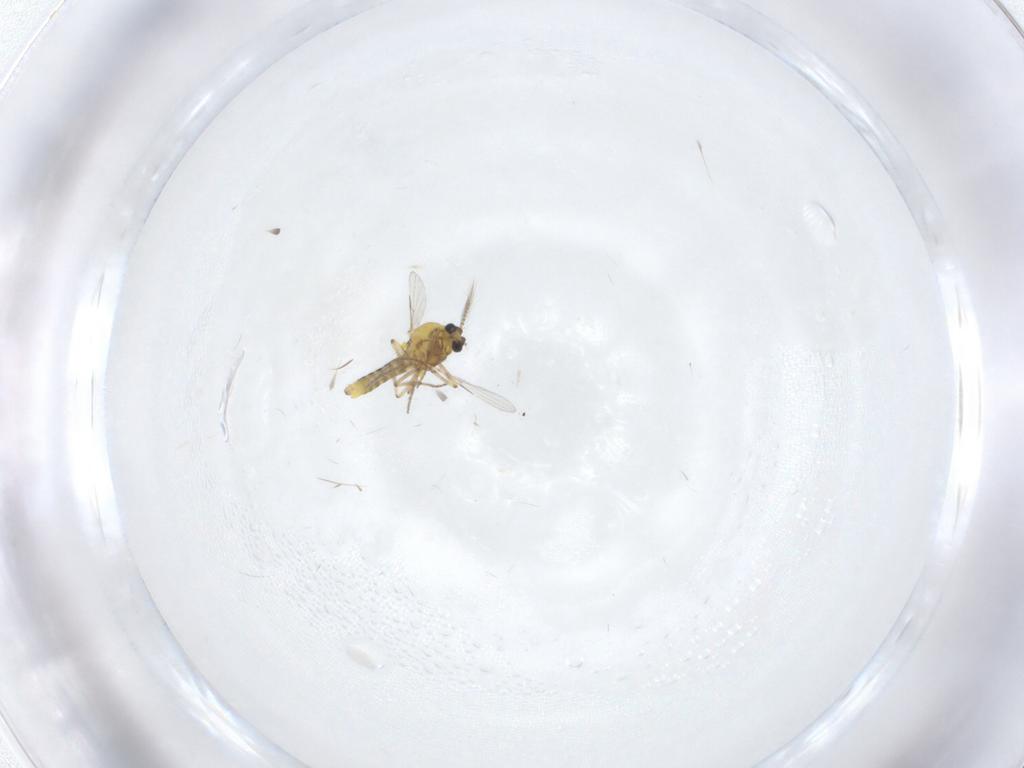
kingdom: Animalia
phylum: Arthropoda
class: Insecta
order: Diptera
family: Ceratopogonidae
